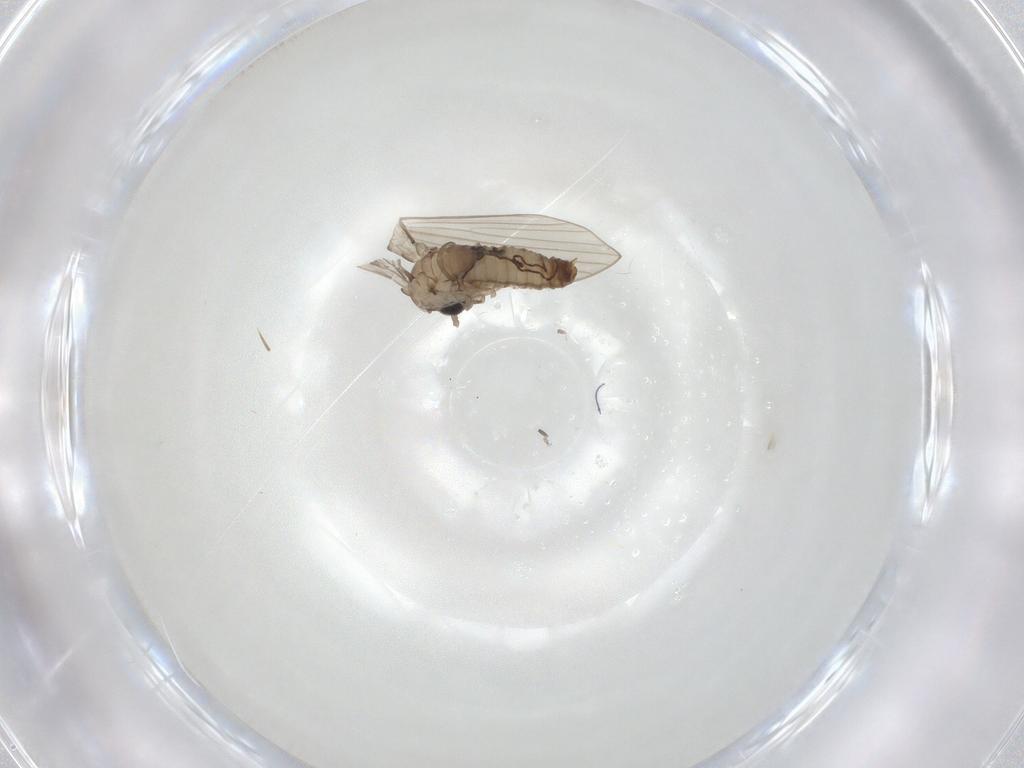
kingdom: Animalia
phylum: Arthropoda
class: Insecta
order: Diptera
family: Psychodidae
